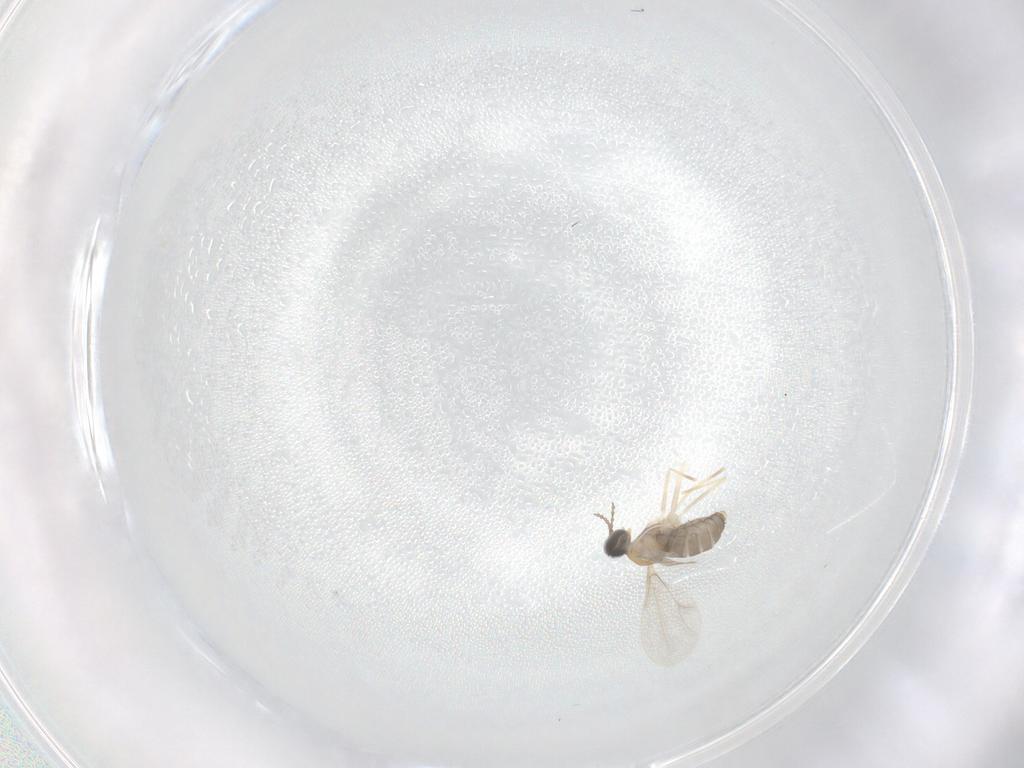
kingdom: Animalia
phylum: Arthropoda
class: Insecta
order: Diptera
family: Cecidomyiidae
